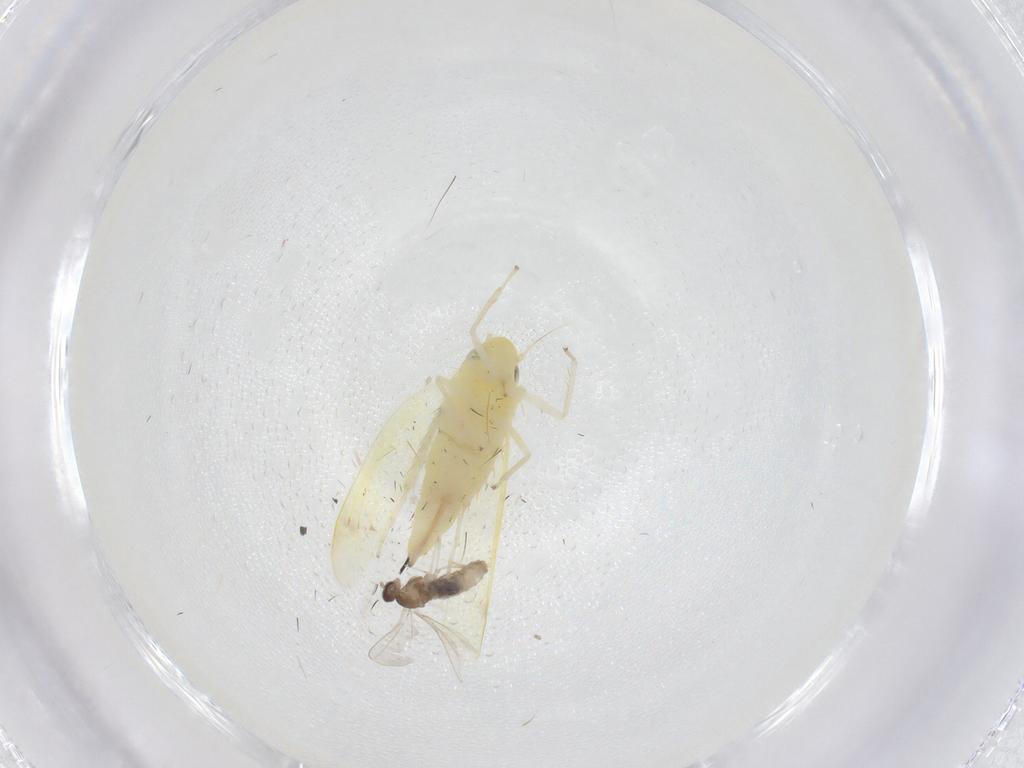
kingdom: Animalia
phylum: Arthropoda
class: Insecta
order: Hemiptera
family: Cicadellidae
